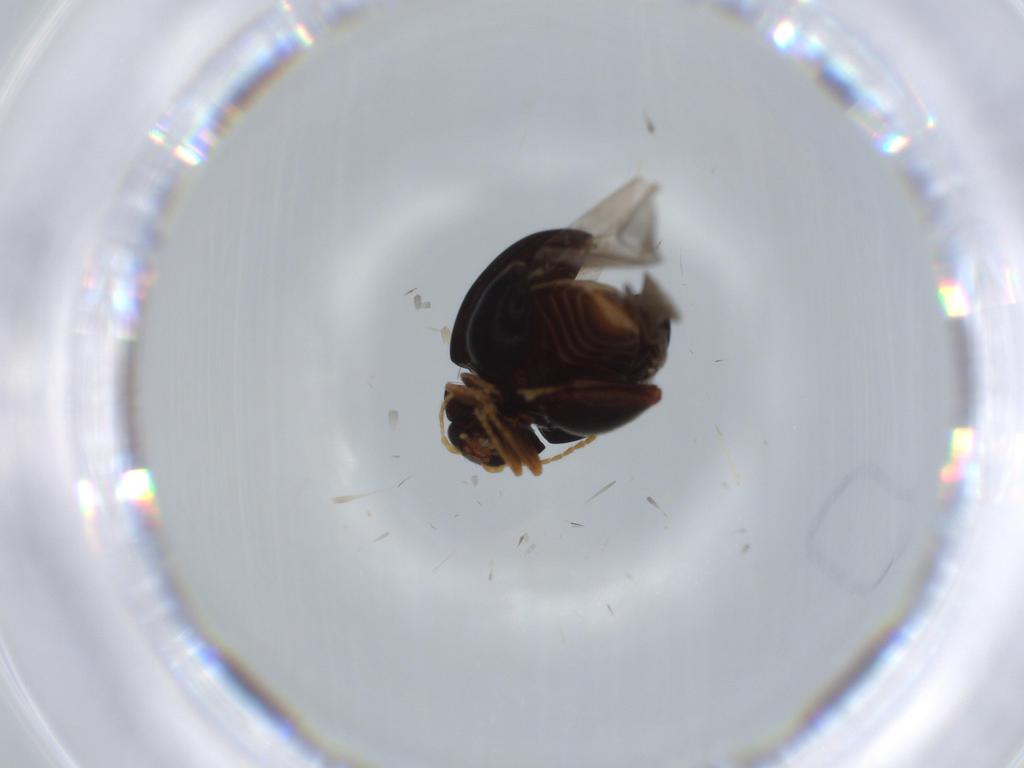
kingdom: Animalia
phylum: Arthropoda
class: Insecta
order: Coleoptera
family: Chrysomelidae
